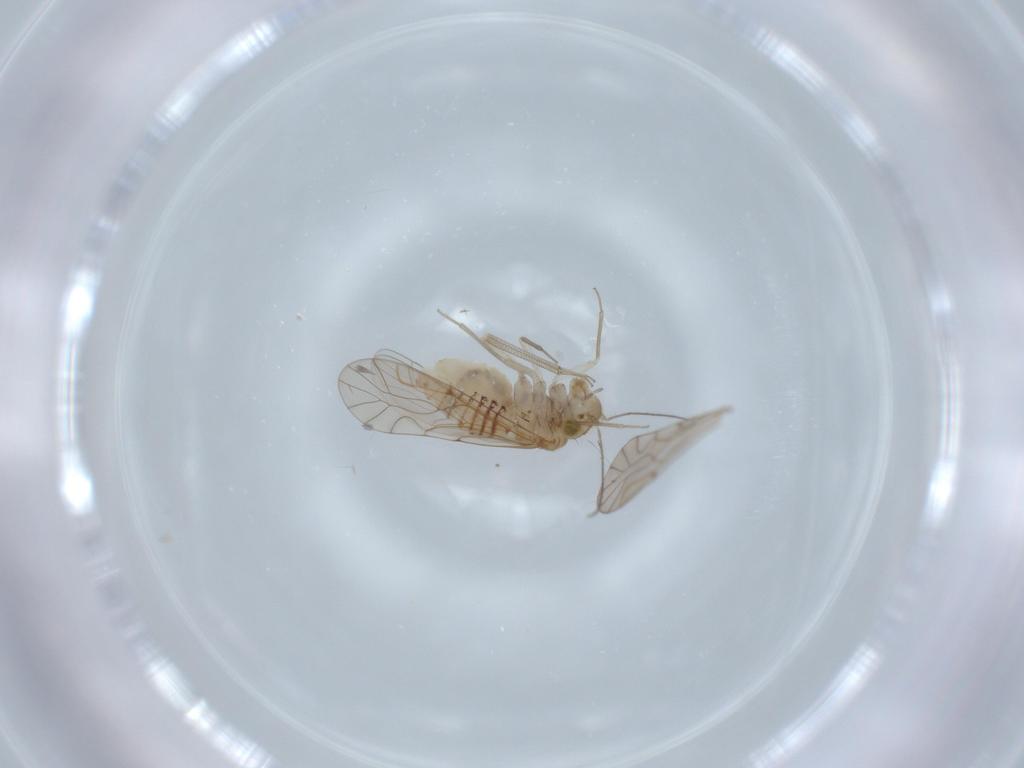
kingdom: Animalia
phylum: Arthropoda
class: Insecta
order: Psocodea
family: Lachesillidae
